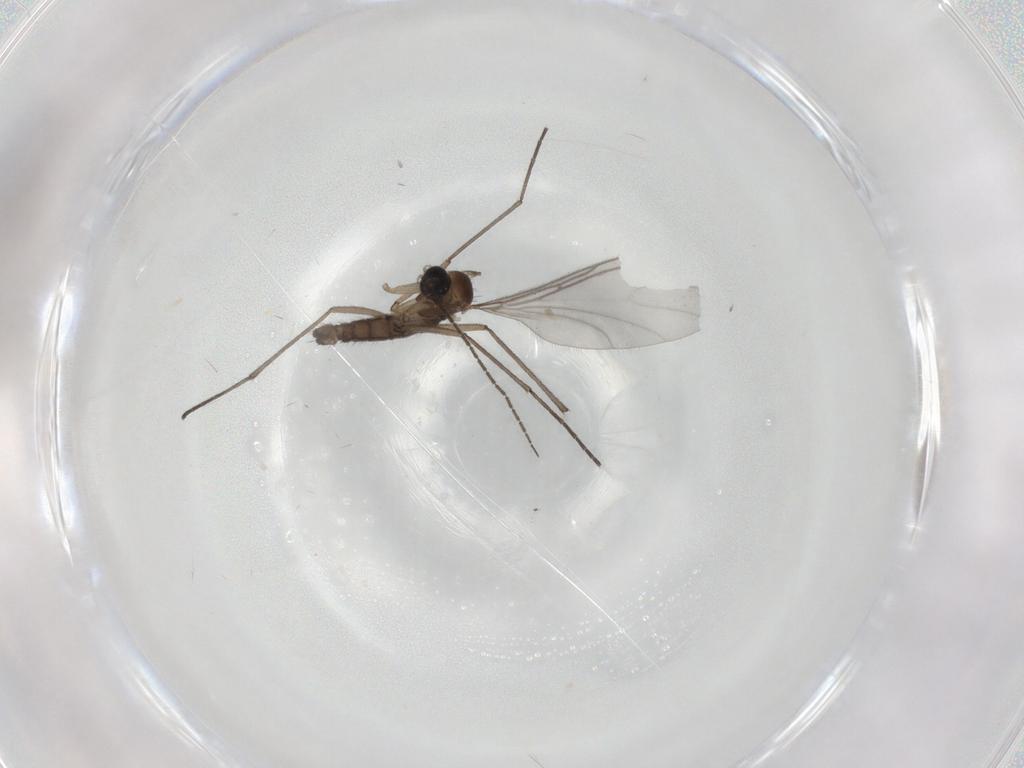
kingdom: Animalia
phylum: Arthropoda
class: Insecta
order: Diptera
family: Sciaridae
